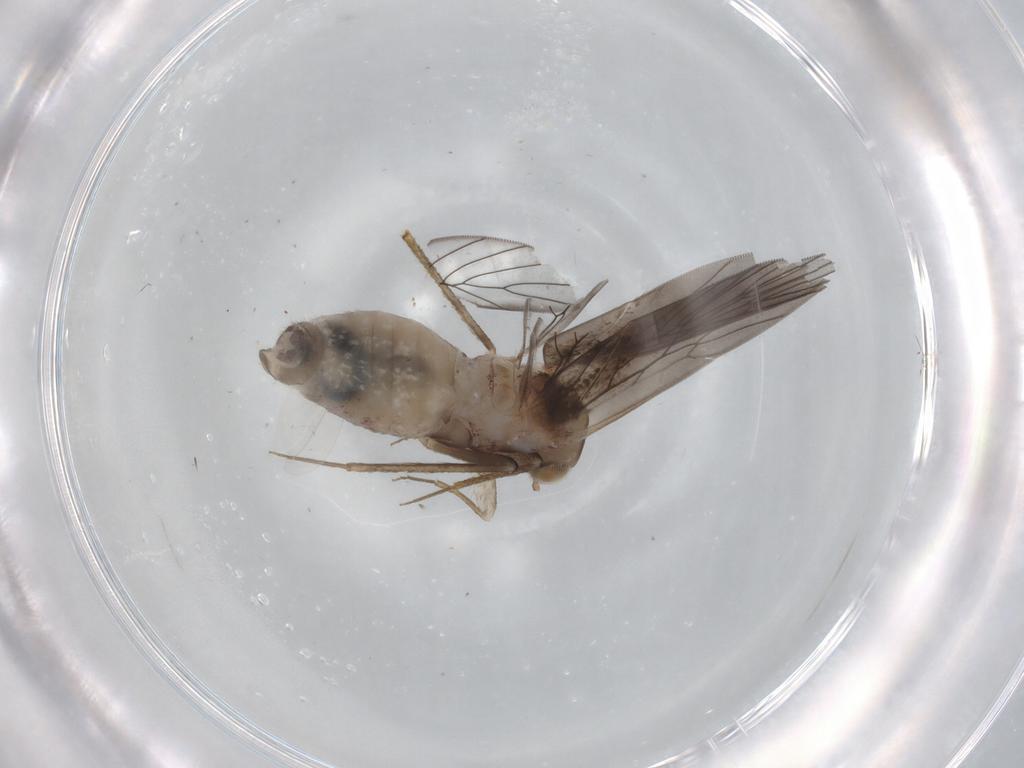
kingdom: Animalia
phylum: Arthropoda
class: Insecta
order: Psocodea
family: Lepidopsocidae
